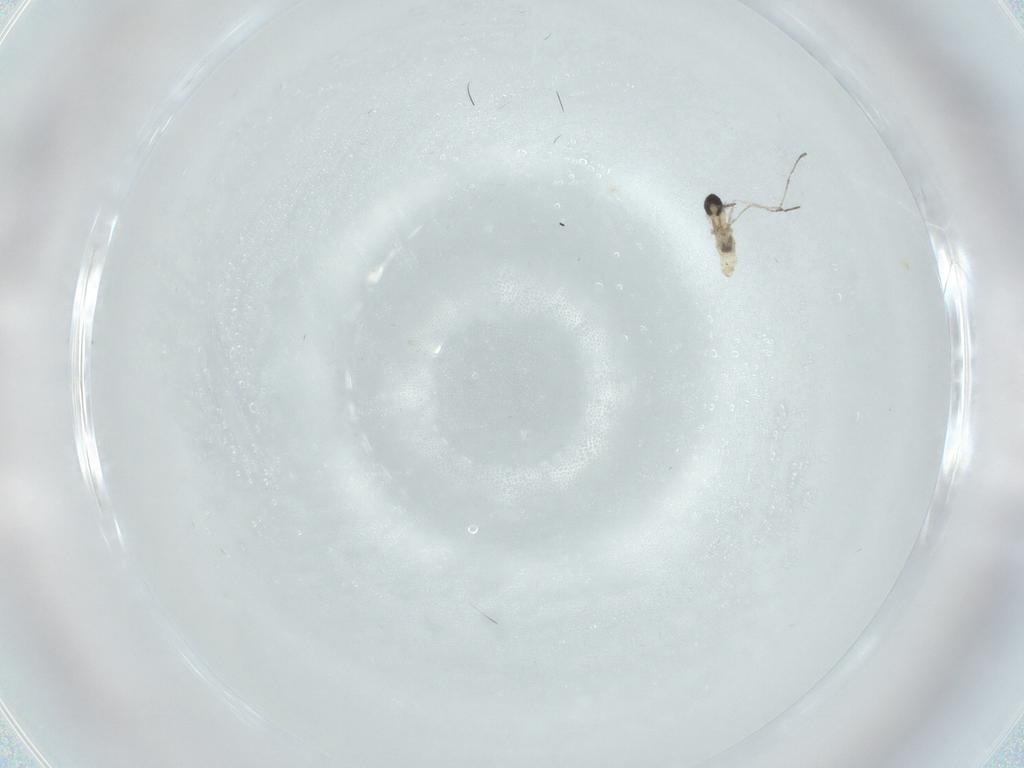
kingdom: Animalia
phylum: Arthropoda
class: Insecta
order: Diptera
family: Cecidomyiidae
